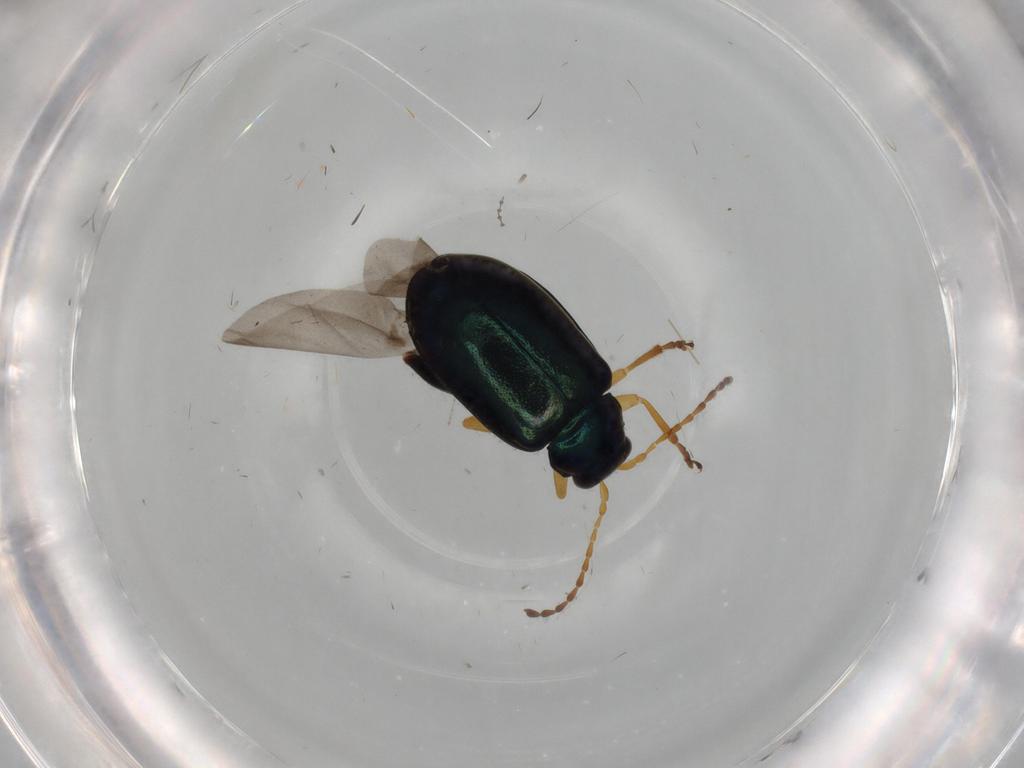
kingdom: Animalia
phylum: Arthropoda
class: Insecta
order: Coleoptera
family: Chrysomelidae
